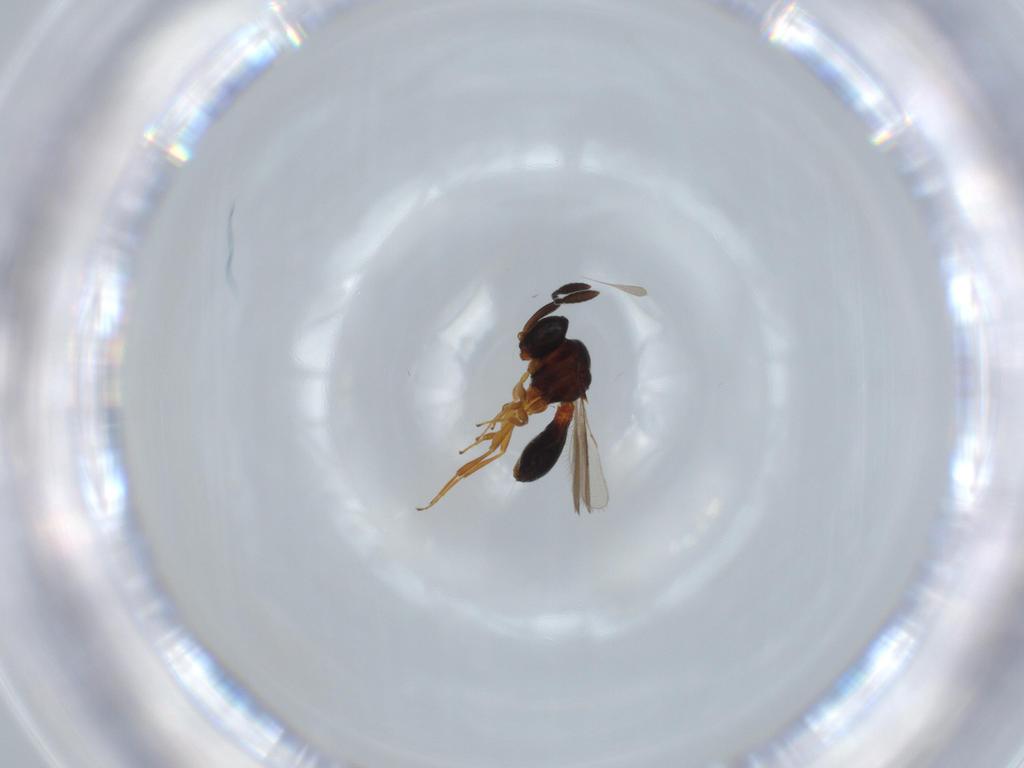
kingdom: Animalia
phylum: Arthropoda
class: Insecta
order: Hymenoptera
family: Scelionidae
